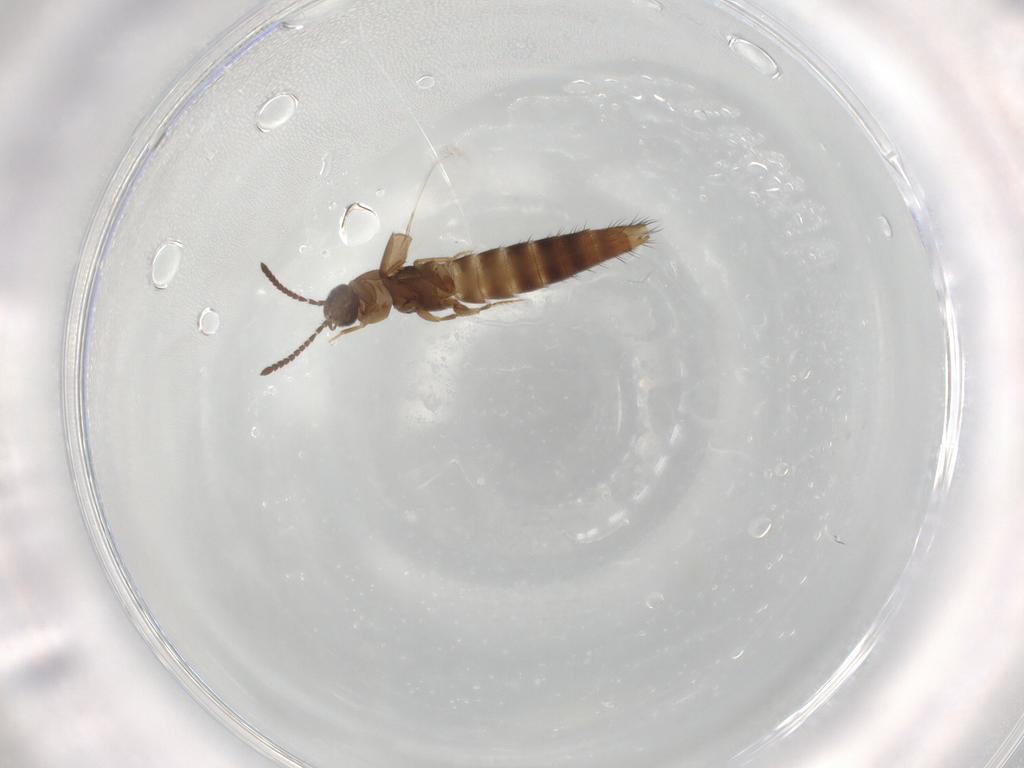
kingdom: Animalia
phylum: Arthropoda
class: Insecta
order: Coleoptera
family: Staphylinidae
